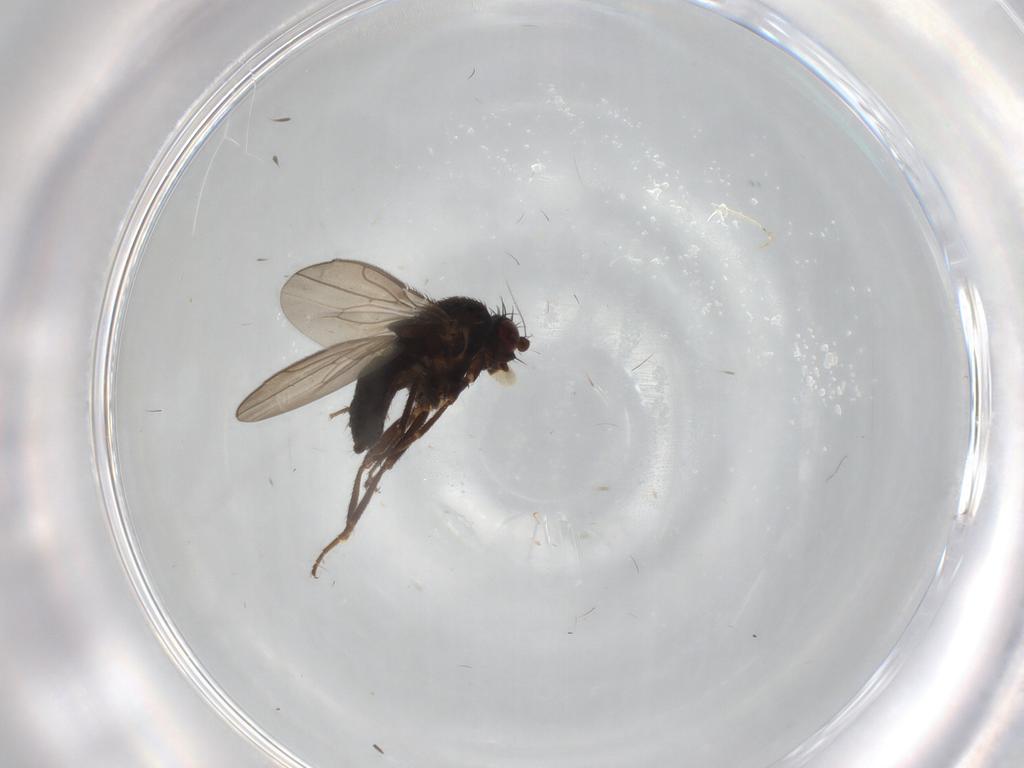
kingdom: Animalia
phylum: Arthropoda
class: Insecta
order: Diptera
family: Sphaeroceridae
